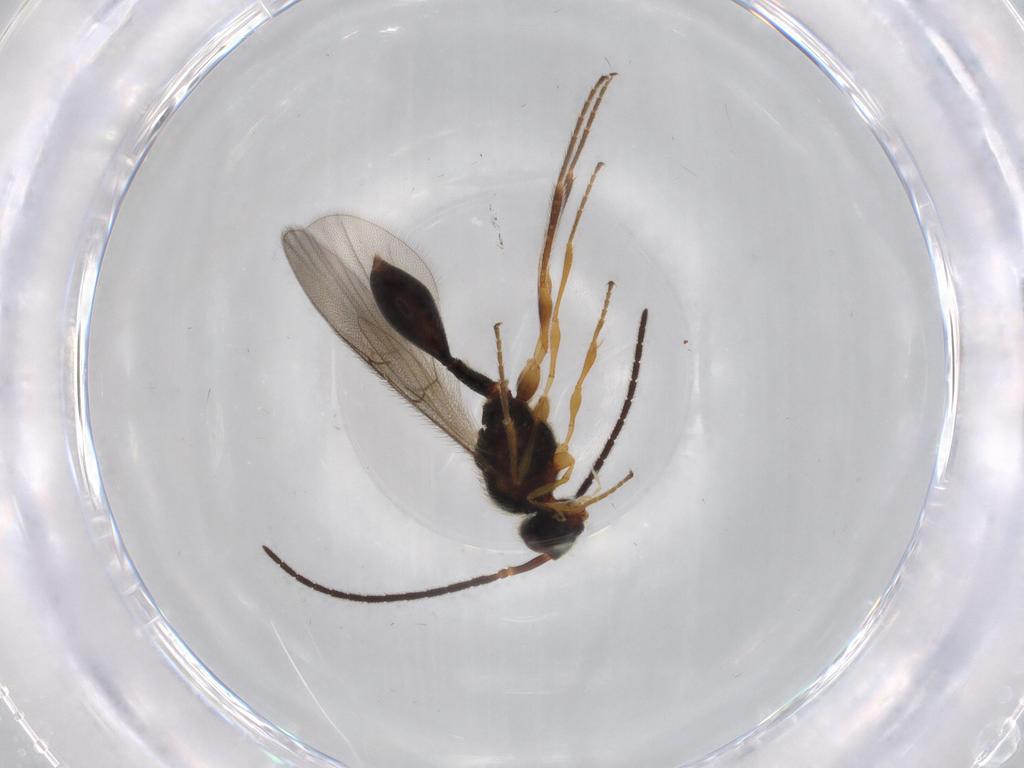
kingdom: Animalia
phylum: Arthropoda
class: Insecta
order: Hymenoptera
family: Diapriidae
